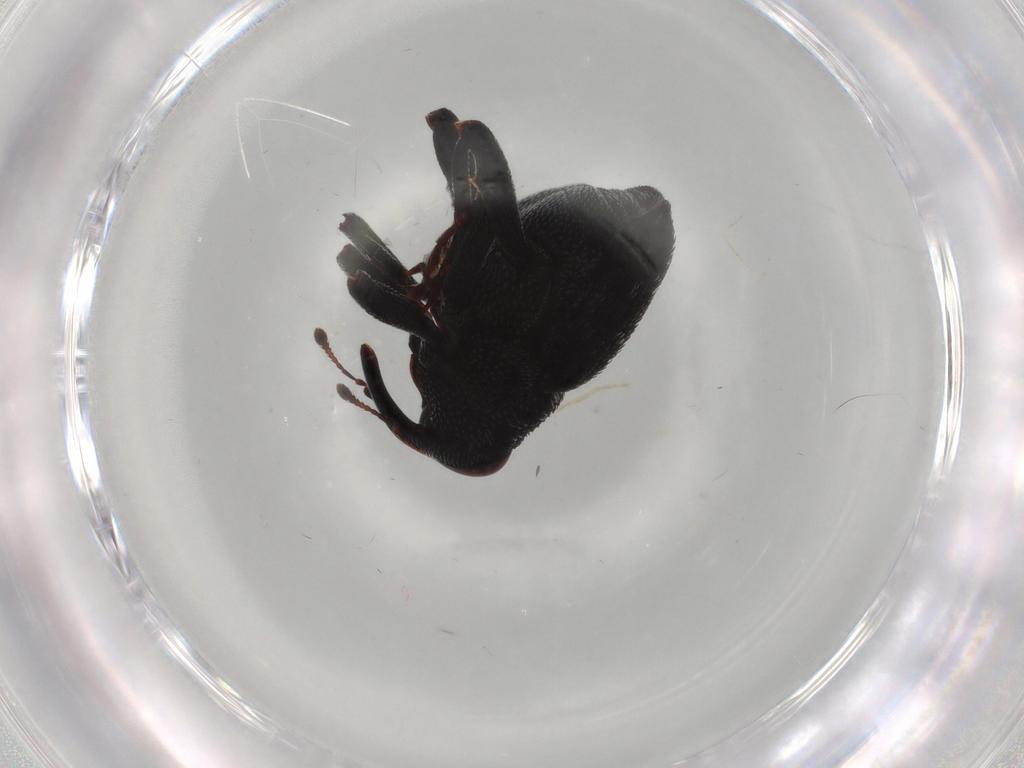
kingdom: Animalia
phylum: Arthropoda
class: Insecta
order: Coleoptera
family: Curculionidae
